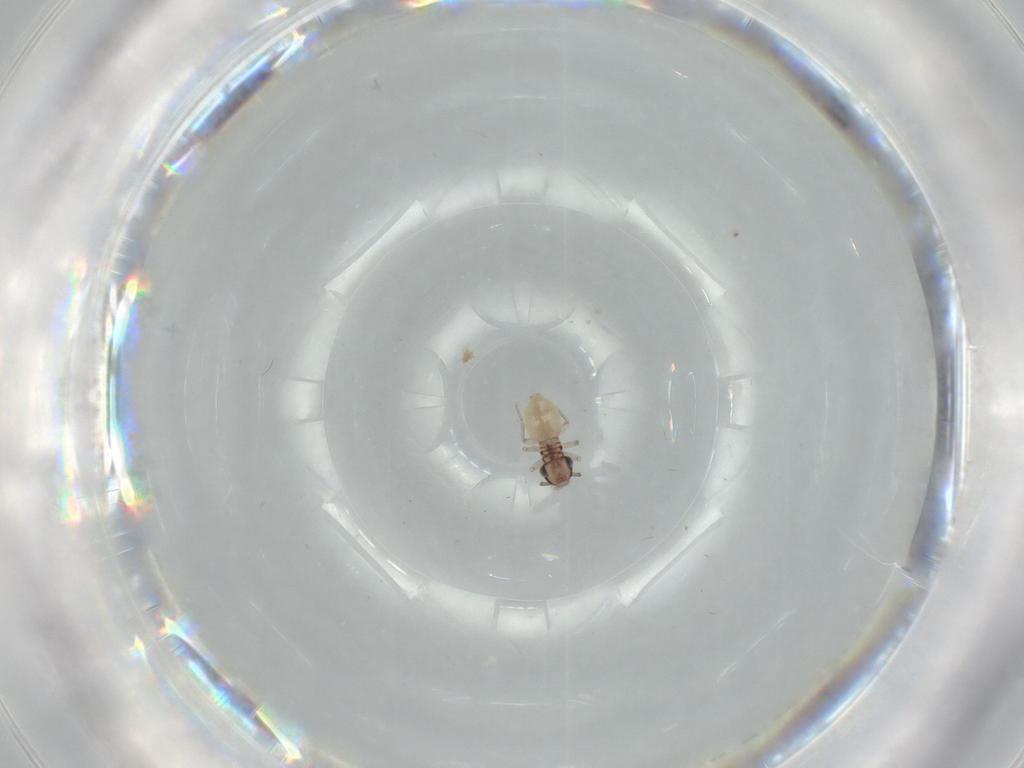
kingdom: Animalia
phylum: Arthropoda
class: Insecta
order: Psocodea
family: Lepidopsocidae
